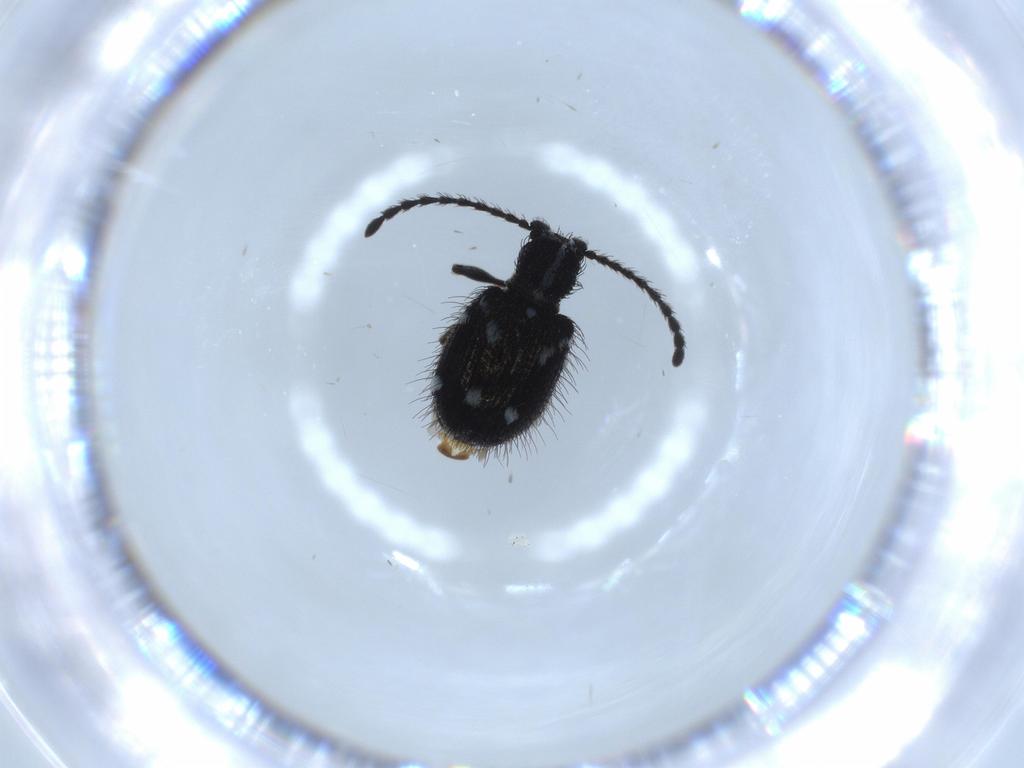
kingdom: Animalia
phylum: Arthropoda
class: Insecta
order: Coleoptera
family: Ptinidae
